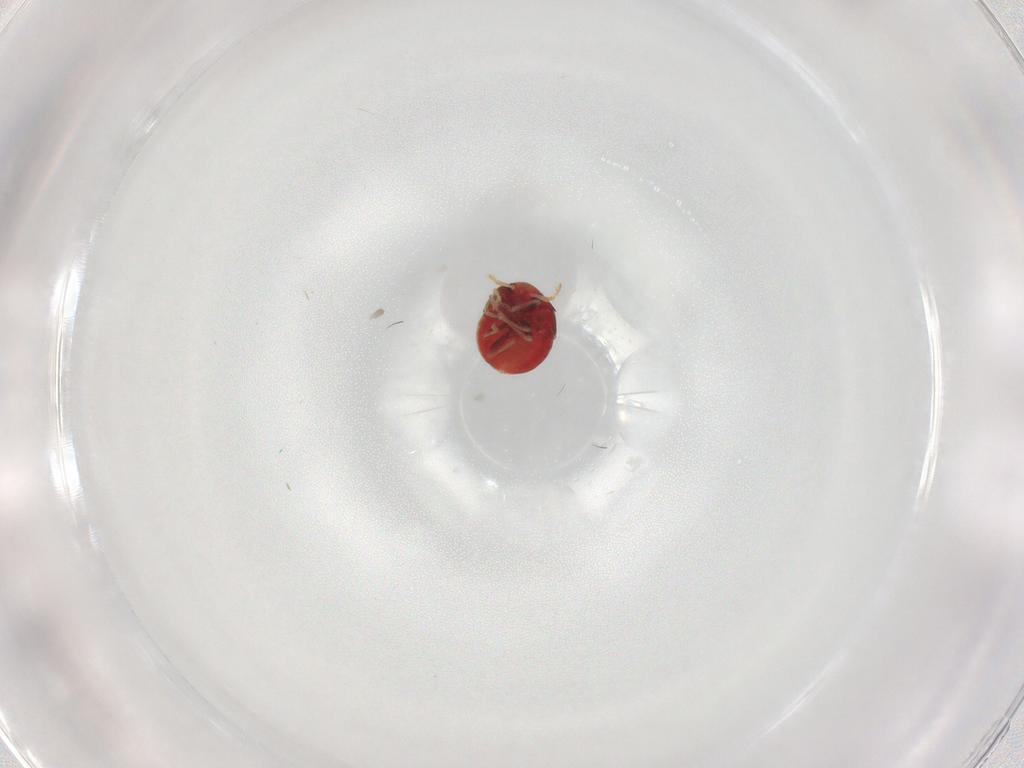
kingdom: Animalia
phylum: Arthropoda
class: Insecta
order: Hemiptera
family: Anthocoridae
